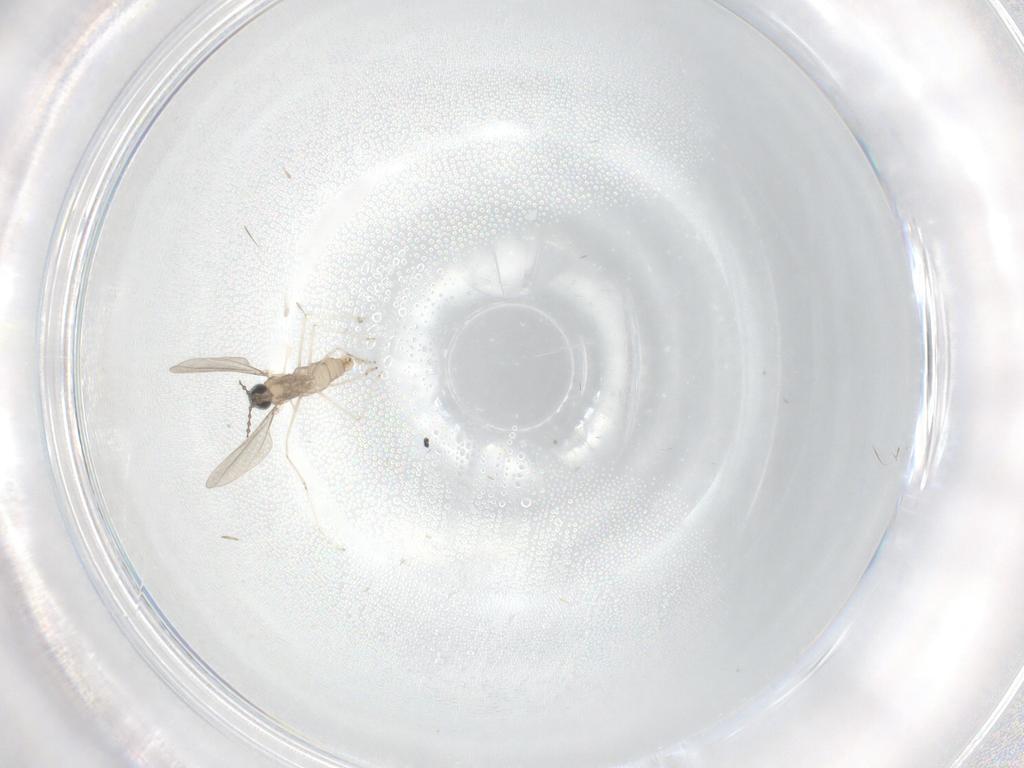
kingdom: Animalia
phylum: Arthropoda
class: Insecta
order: Diptera
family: Cecidomyiidae
